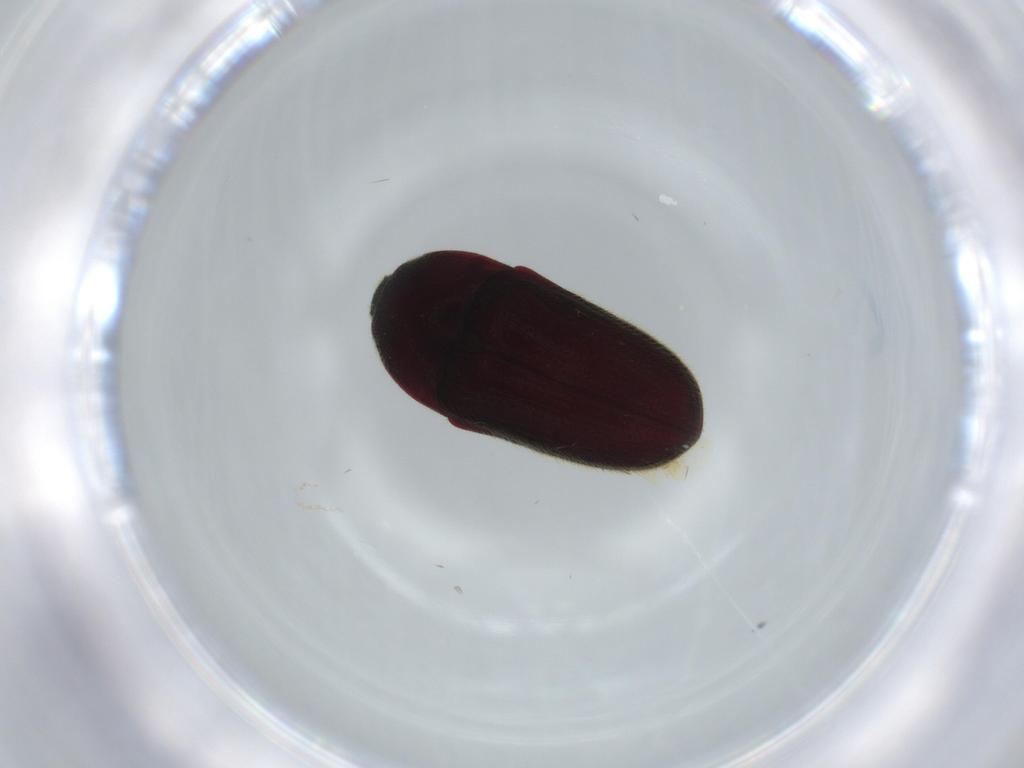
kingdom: Animalia
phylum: Arthropoda
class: Insecta
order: Coleoptera
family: Throscidae
